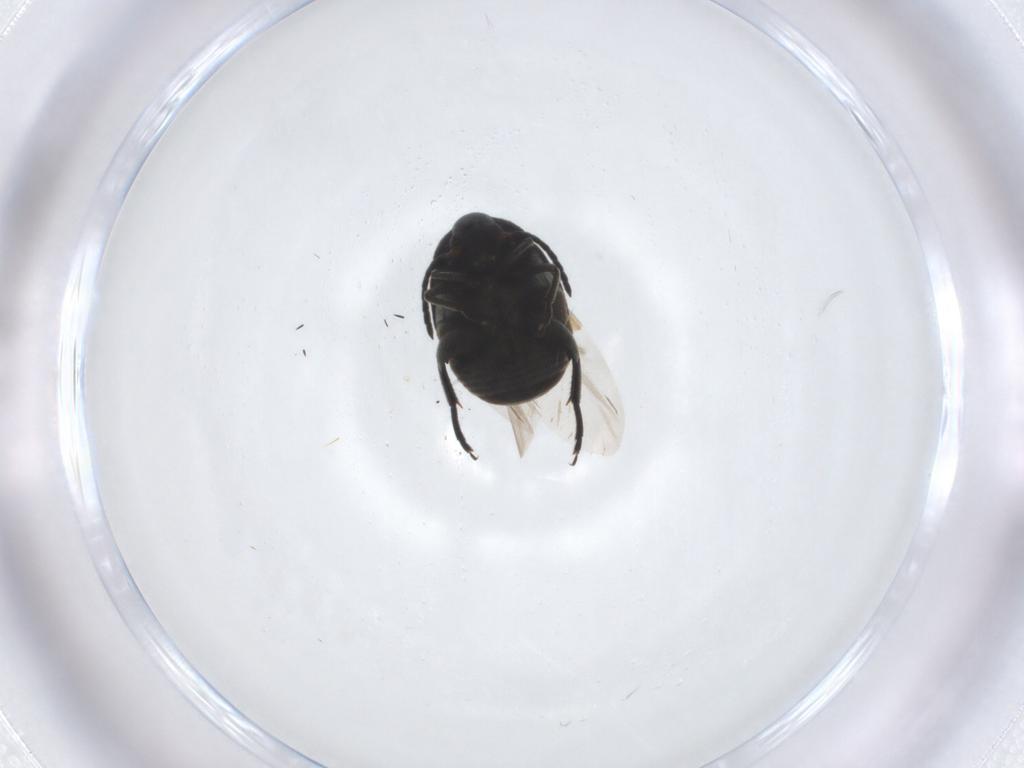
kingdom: Animalia
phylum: Arthropoda
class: Insecta
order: Coleoptera
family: Chrysomelidae
